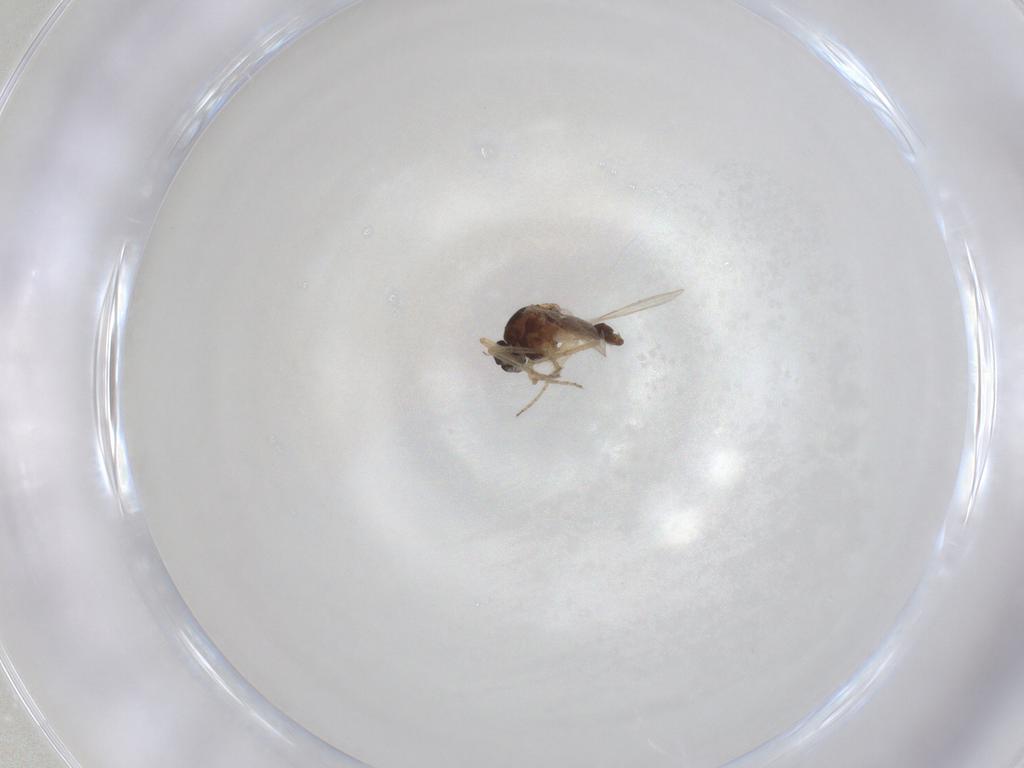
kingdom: Animalia
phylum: Arthropoda
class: Insecta
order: Diptera
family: Ceratopogonidae
